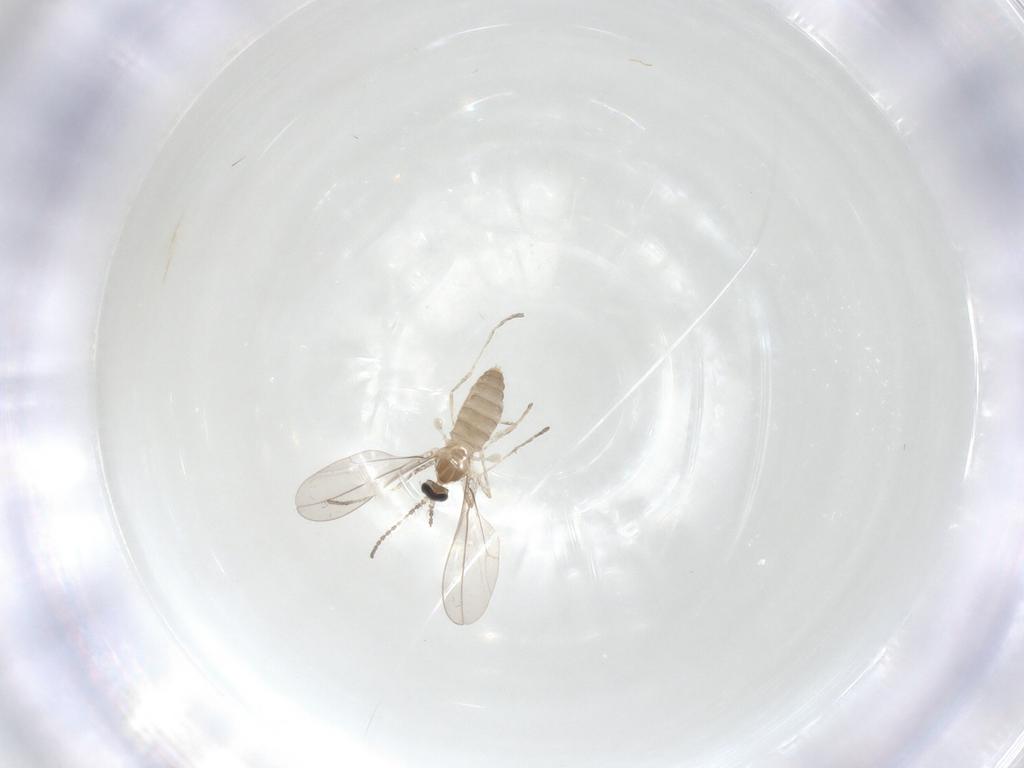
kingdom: Animalia
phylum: Arthropoda
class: Insecta
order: Diptera
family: Cecidomyiidae
